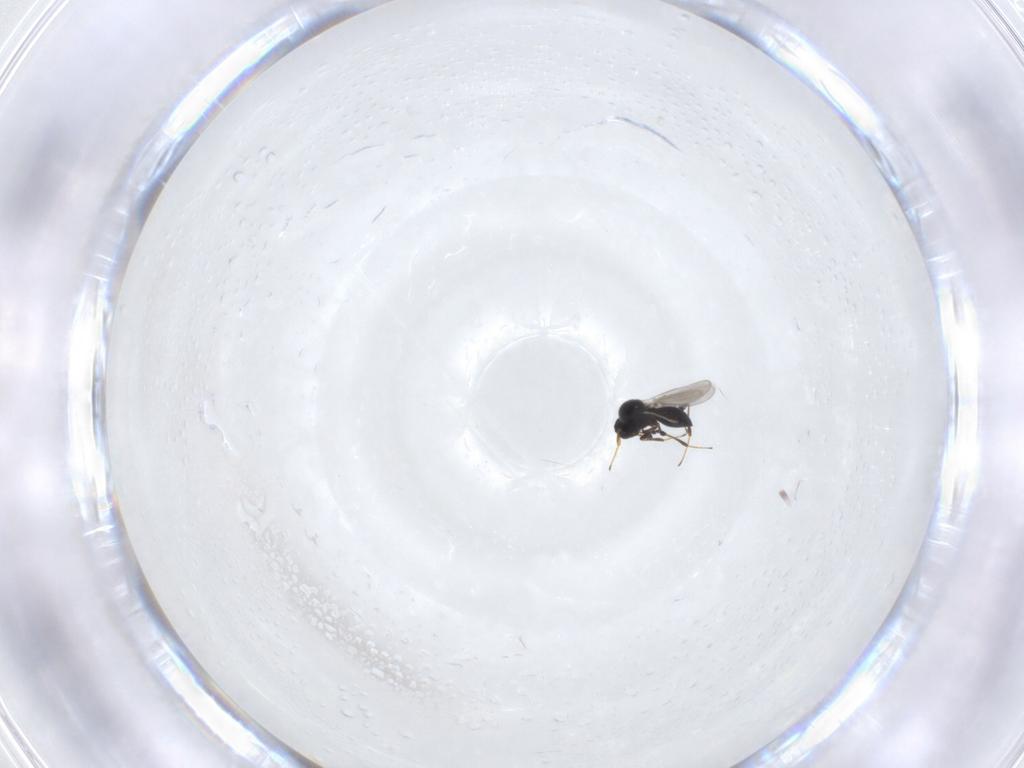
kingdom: Animalia
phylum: Arthropoda
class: Insecta
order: Hymenoptera
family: Platygastridae
